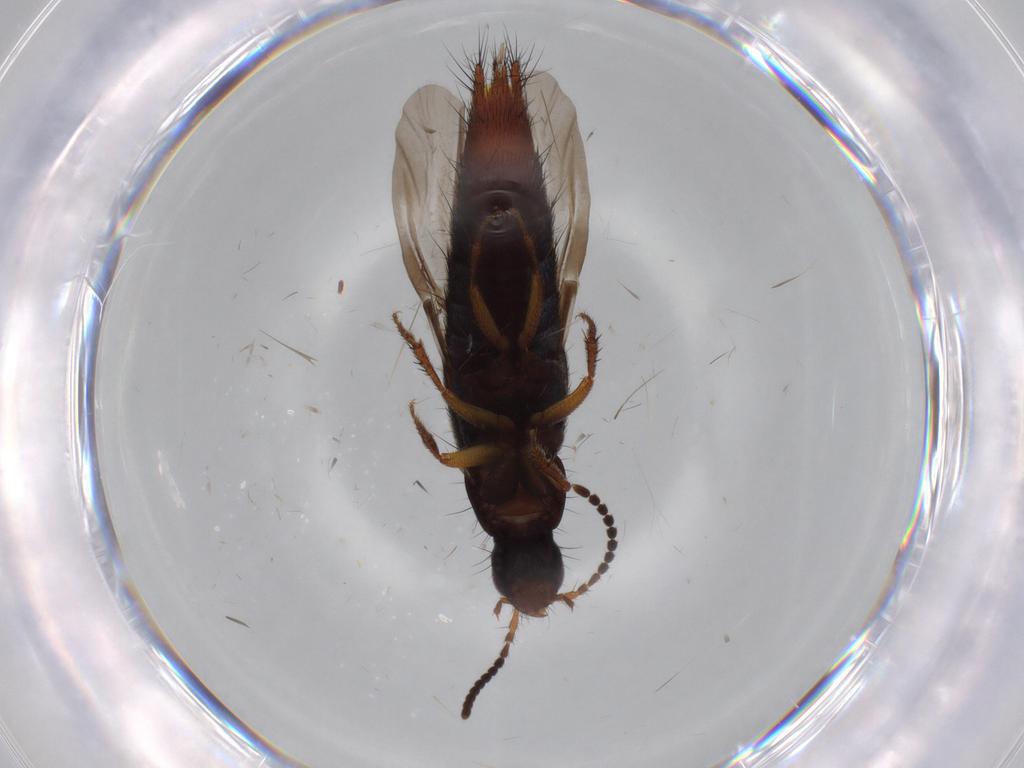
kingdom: Animalia
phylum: Arthropoda
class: Insecta
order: Coleoptera
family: Staphylinidae
